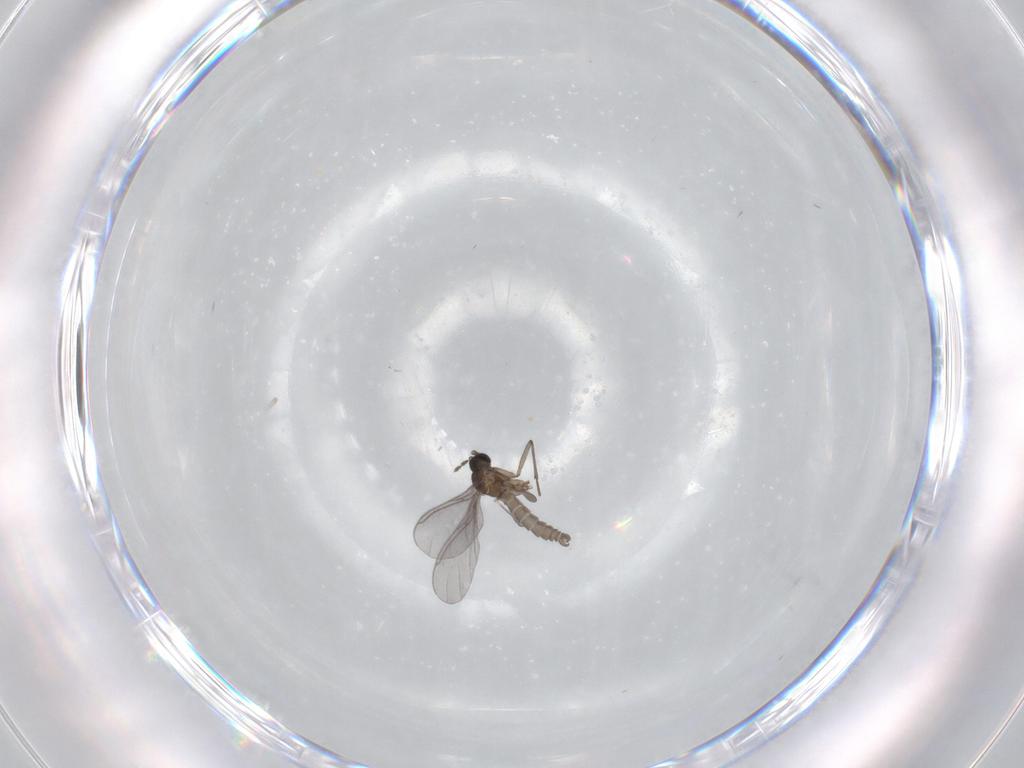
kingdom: Animalia
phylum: Arthropoda
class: Insecta
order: Diptera
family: Sciaridae
